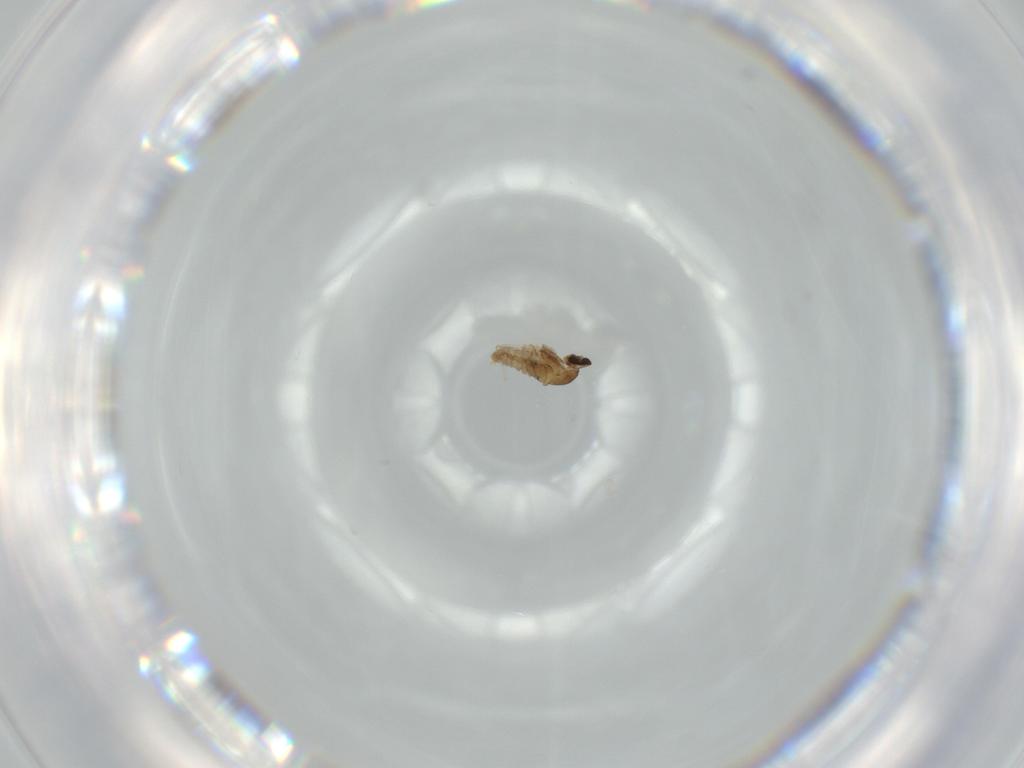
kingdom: Animalia
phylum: Arthropoda
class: Insecta
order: Diptera
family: Cecidomyiidae
